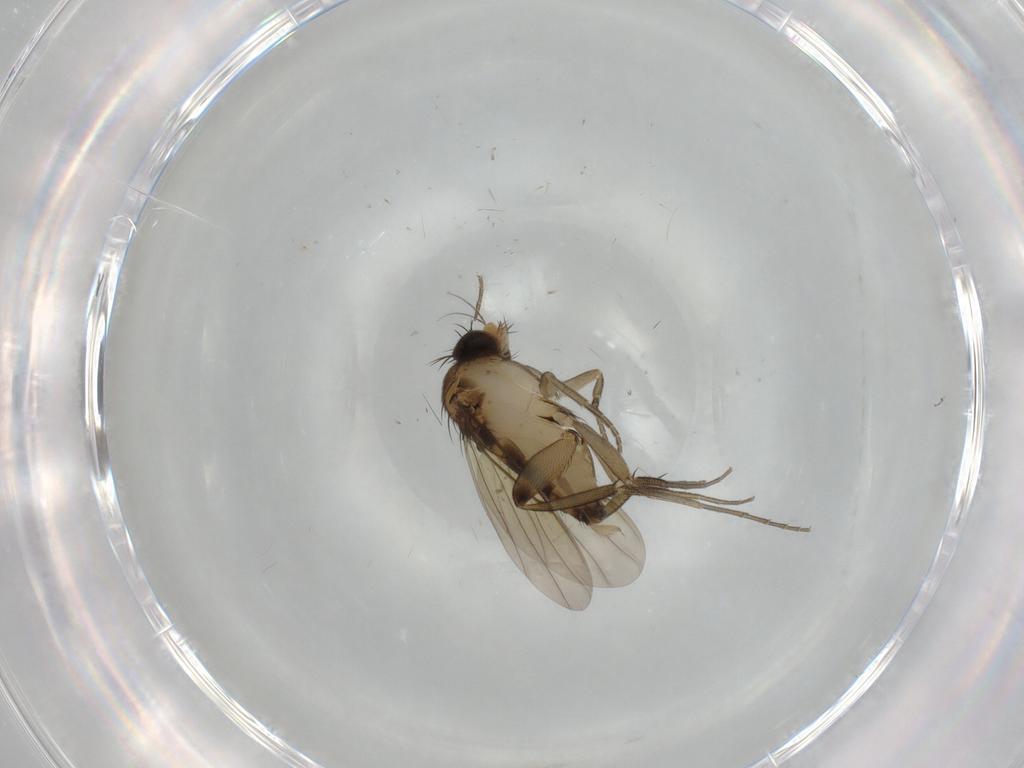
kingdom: Animalia
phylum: Arthropoda
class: Insecta
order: Diptera
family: Phoridae
